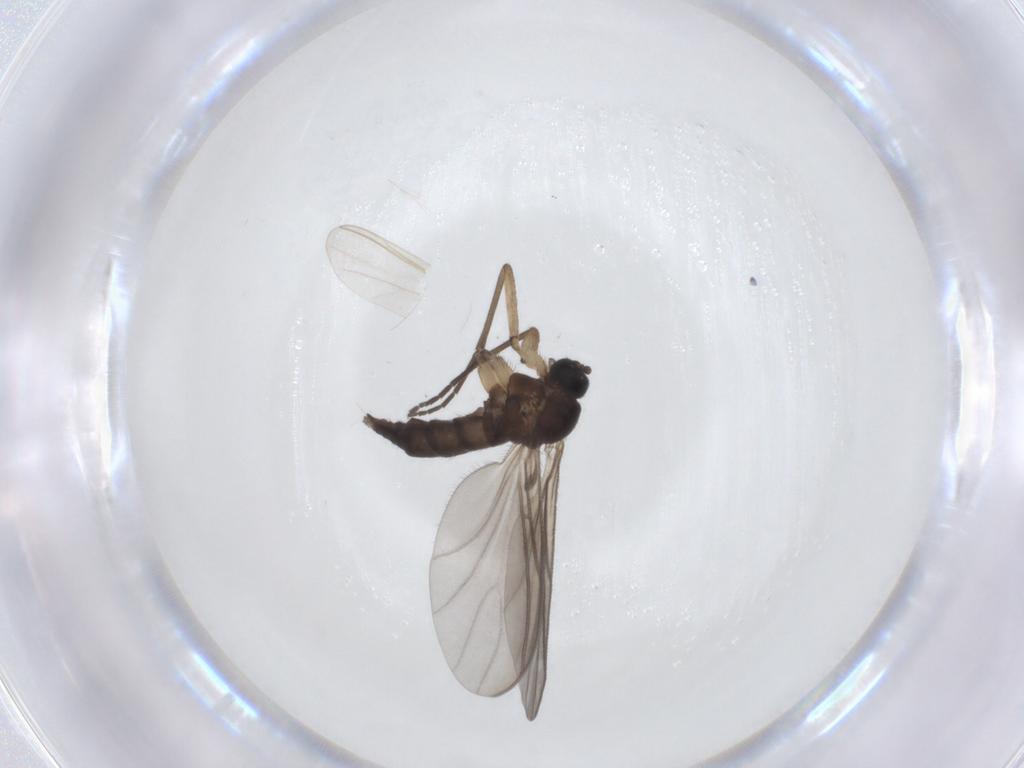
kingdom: Animalia
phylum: Arthropoda
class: Insecta
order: Diptera
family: Sciaridae
